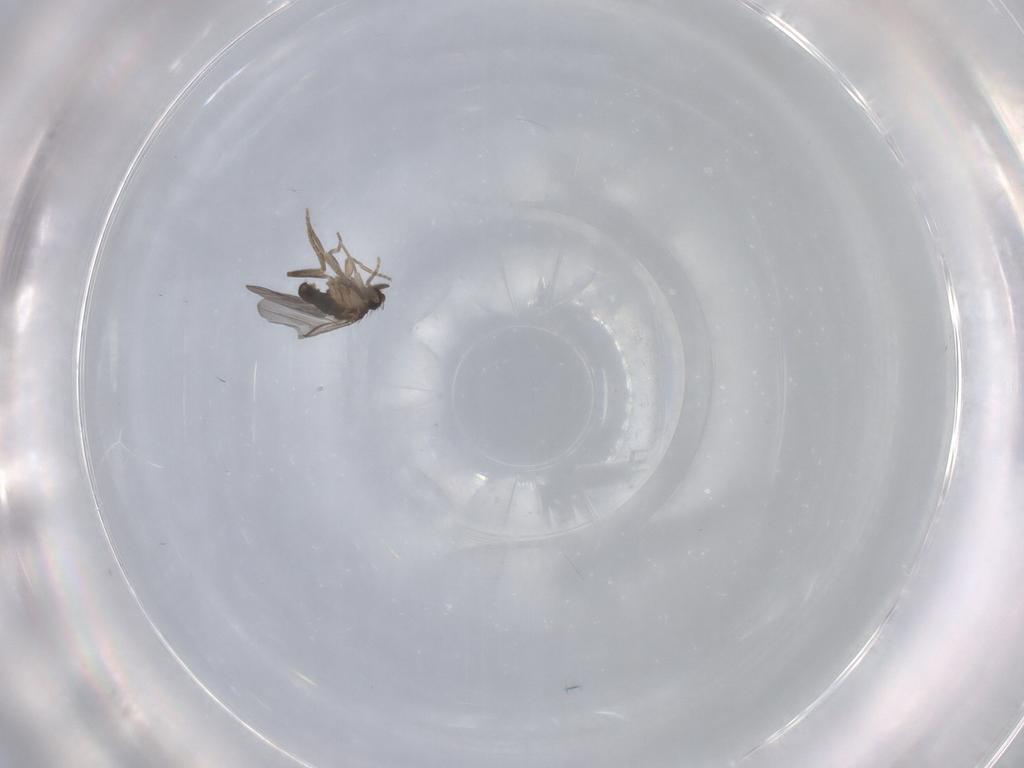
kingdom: Animalia
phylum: Arthropoda
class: Insecta
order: Diptera
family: Phoridae
